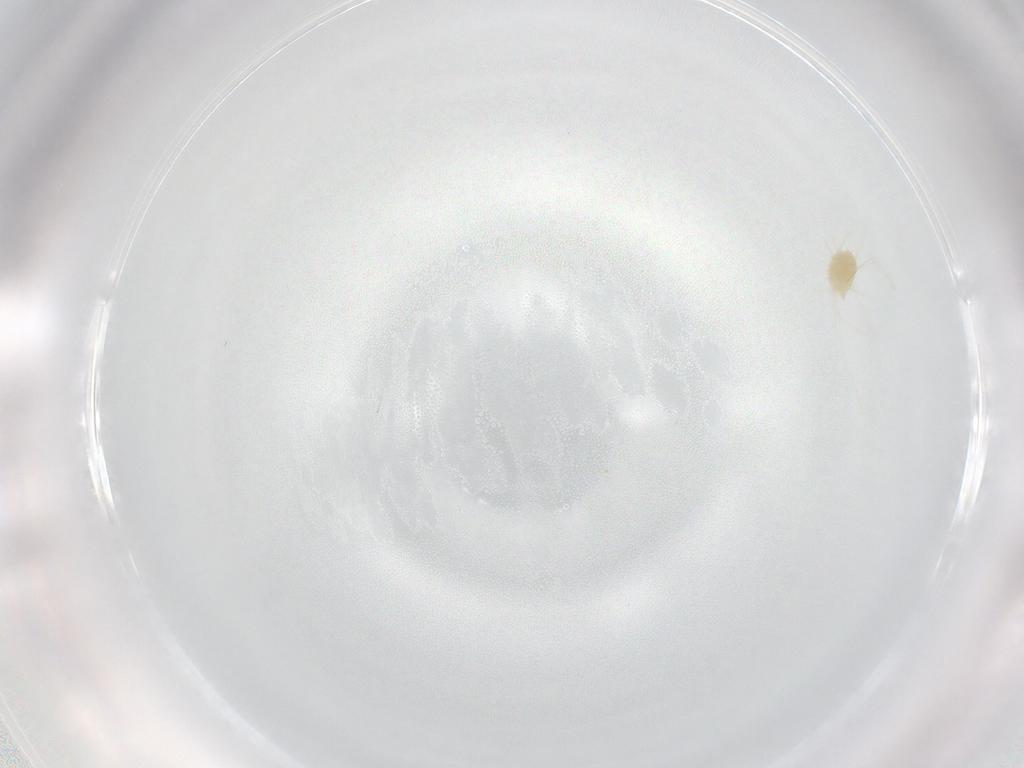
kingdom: Animalia
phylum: Arthropoda
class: Arachnida
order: Trombidiformes
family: Tetranychidae
